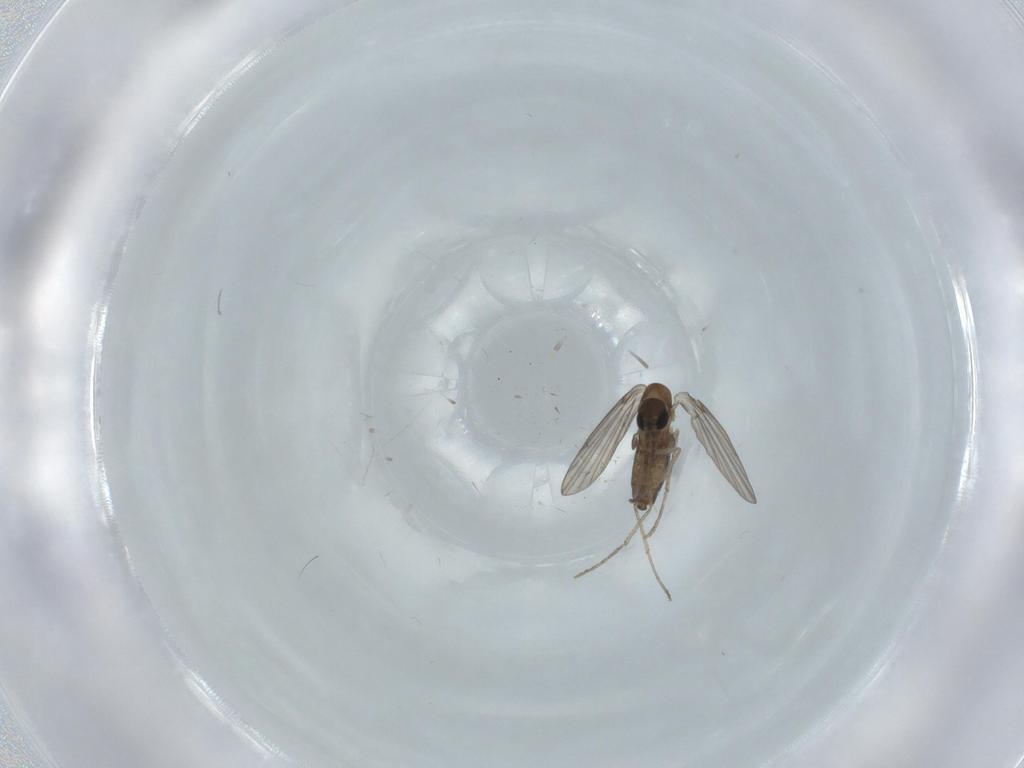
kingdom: Animalia
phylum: Arthropoda
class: Insecta
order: Diptera
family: Psychodidae
